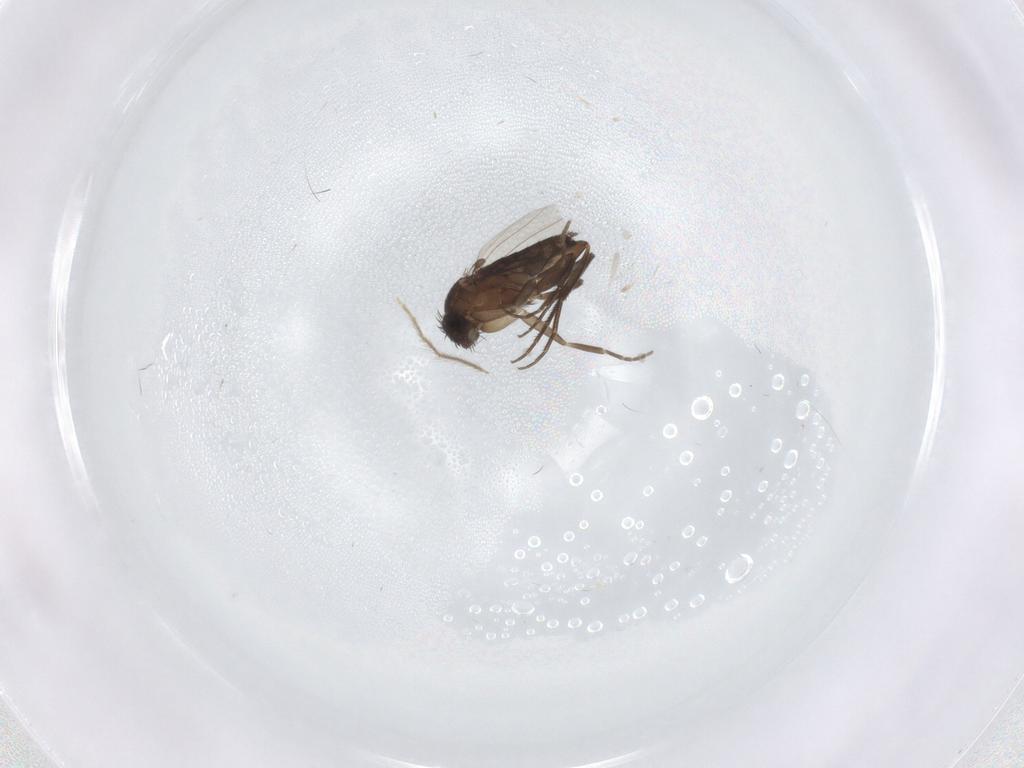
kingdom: Animalia
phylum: Arthropoda
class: Insecta
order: Diptera
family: Phoridae
